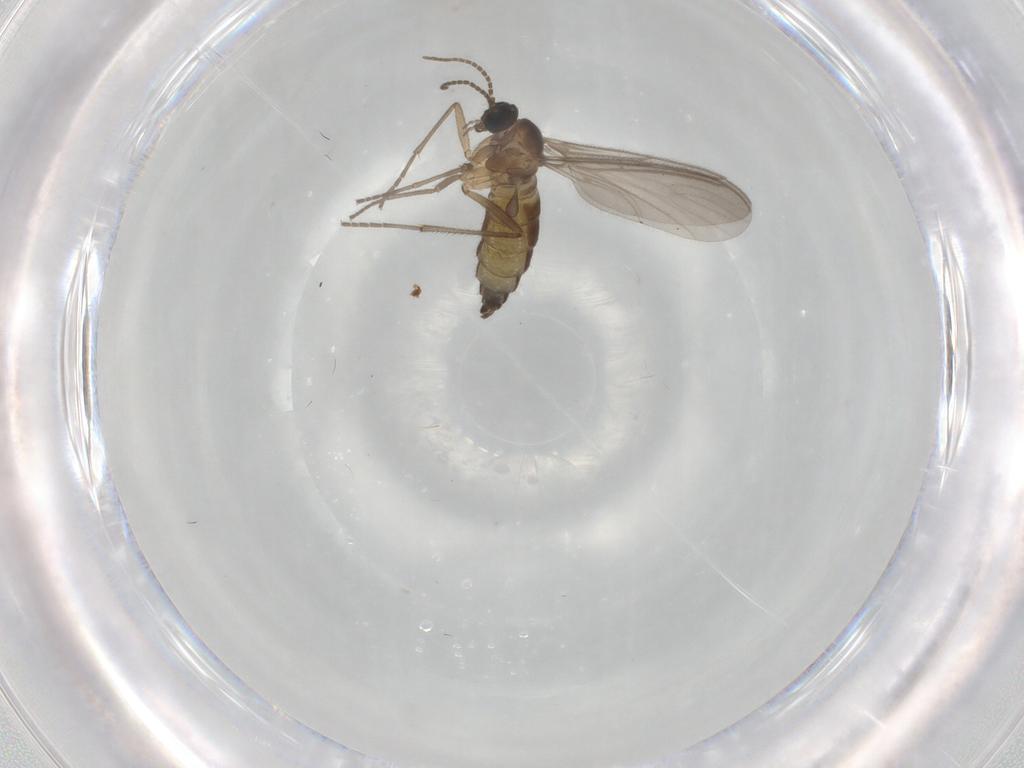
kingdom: Animalia
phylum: Arthropoda
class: Insecta
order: Diptera
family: Sciaridae
